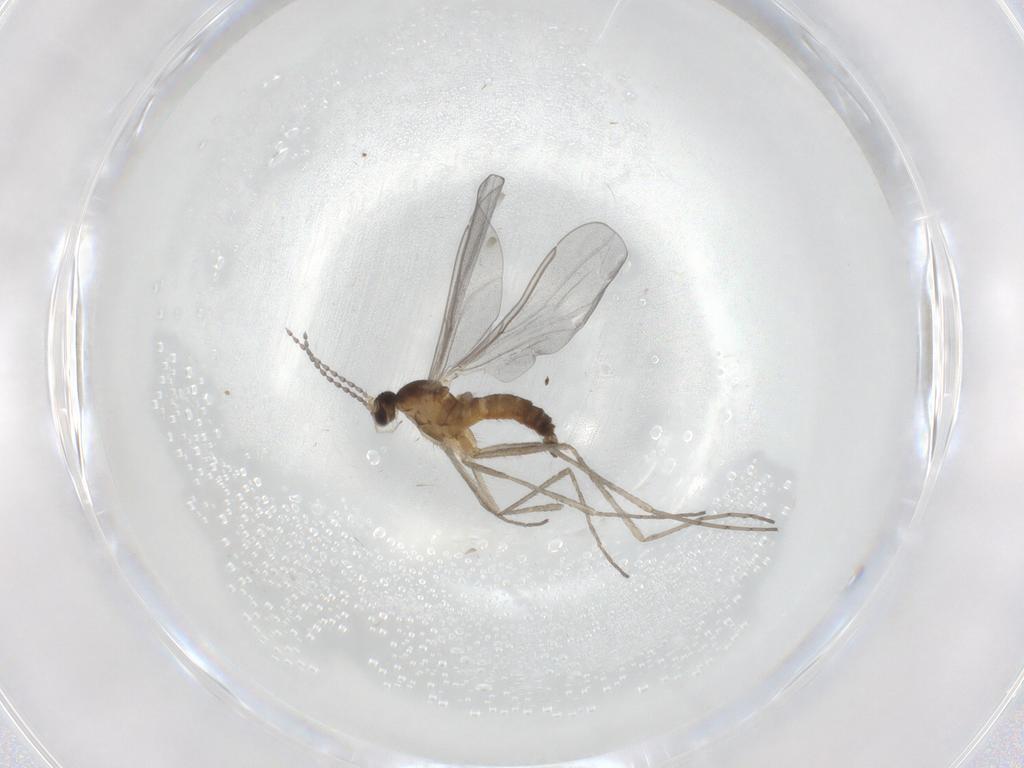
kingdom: Animalia
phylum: Arthropoda
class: Insecta
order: Diptera
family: Cecidomyiidae
